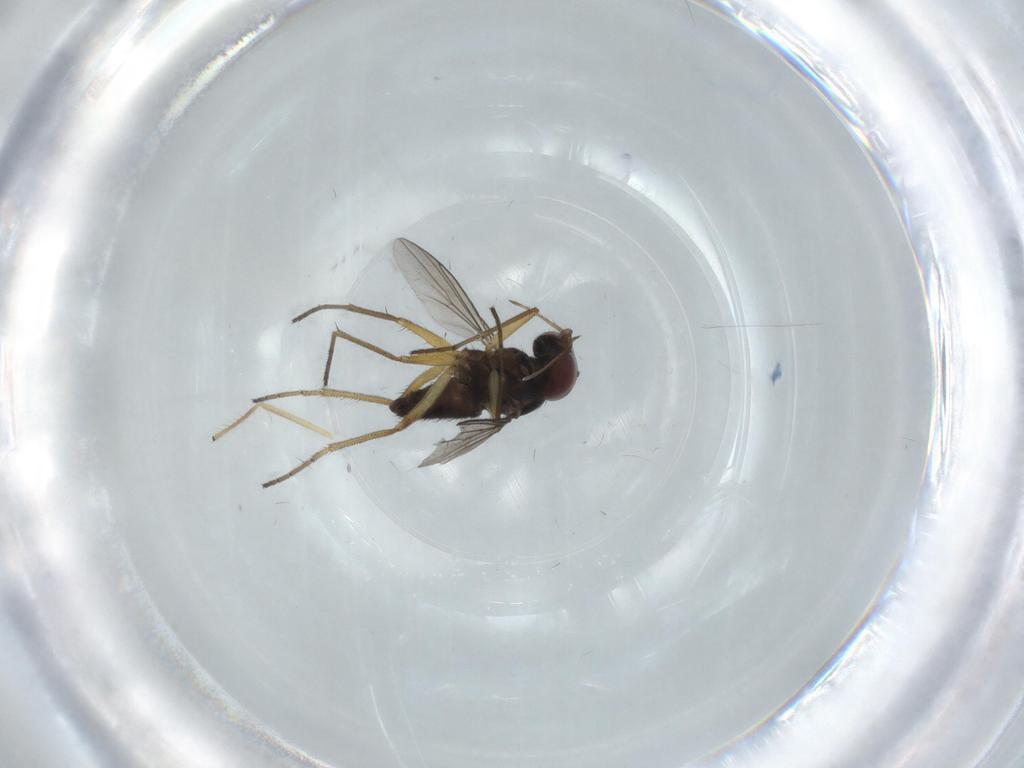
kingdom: Animalia
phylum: Arthropoda
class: Insecta
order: Diptera
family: Dolichopodidae
